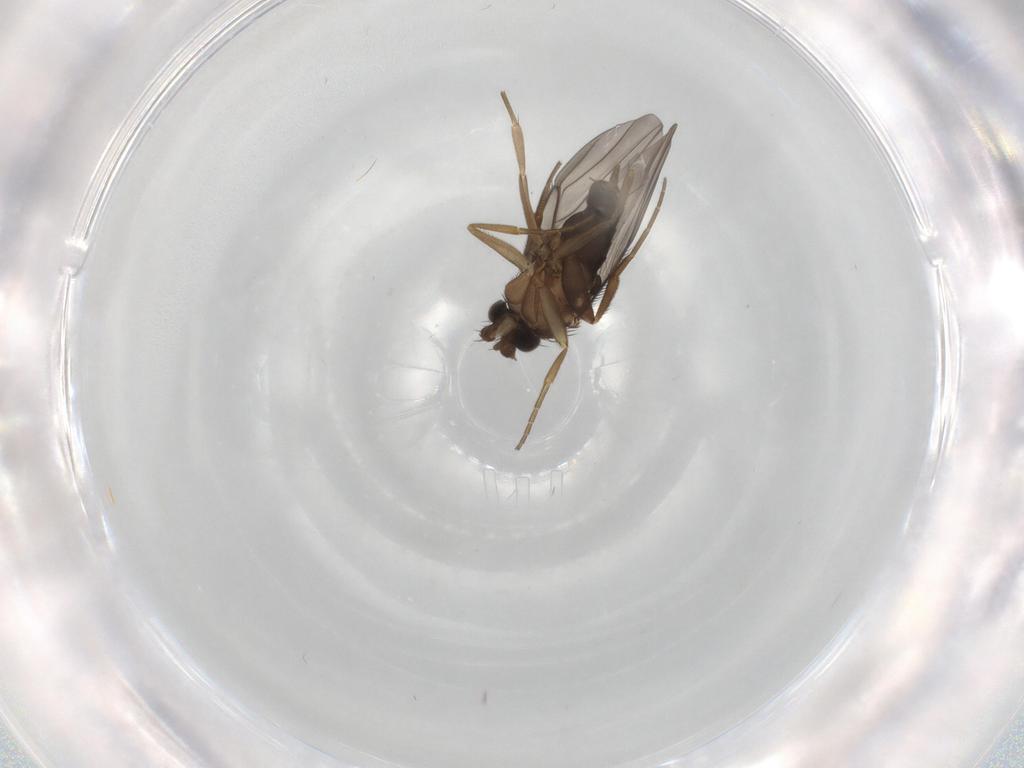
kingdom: Animalia
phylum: Arthropoda
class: Insecta
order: Diptera
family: Phoridae
